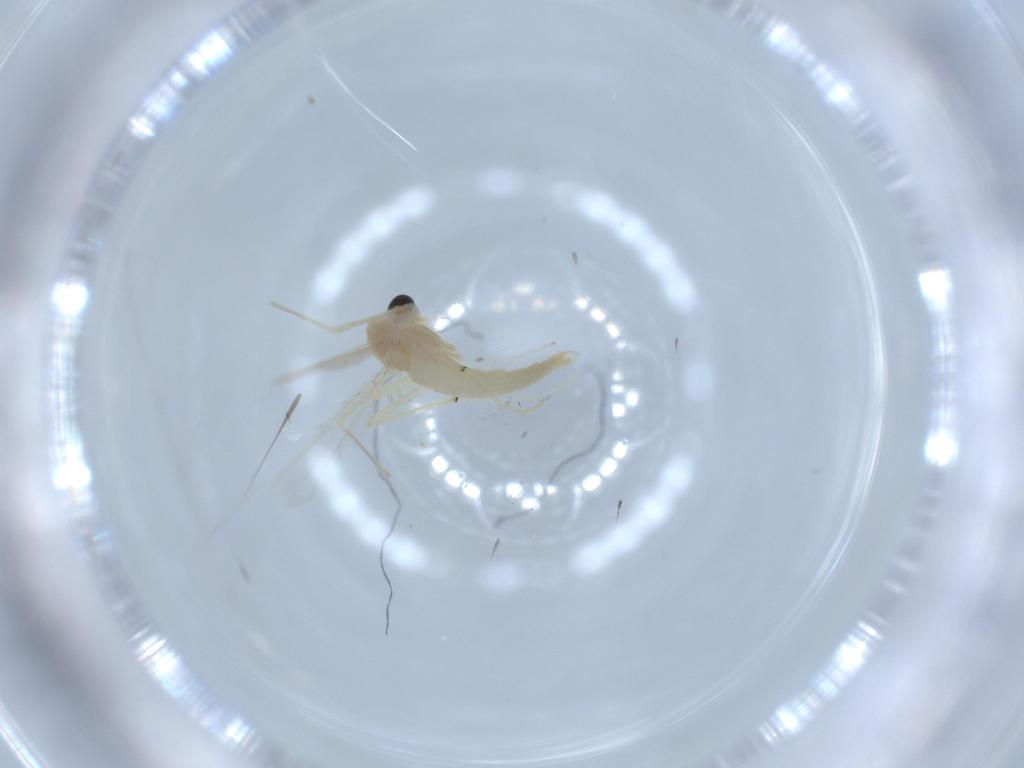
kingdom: Animalia
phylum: Arthropoda
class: Insecta
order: Diptera
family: Chironomidae
